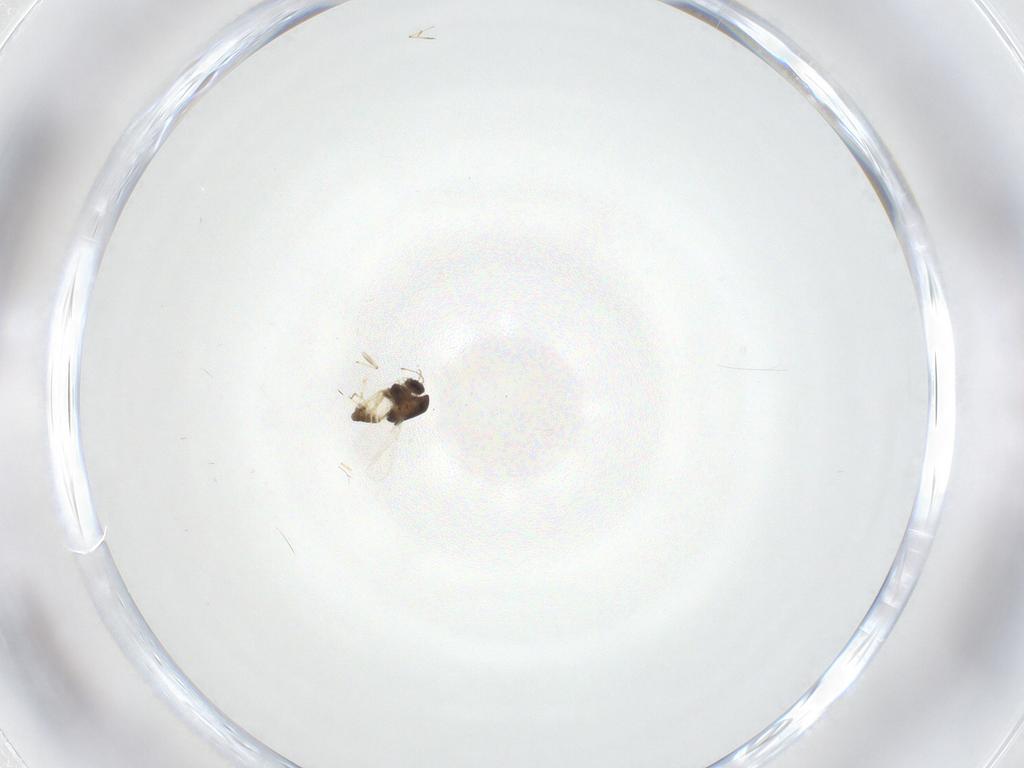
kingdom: Animalia
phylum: Arthropoda
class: Insecta
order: Diptera
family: Chironomidae
